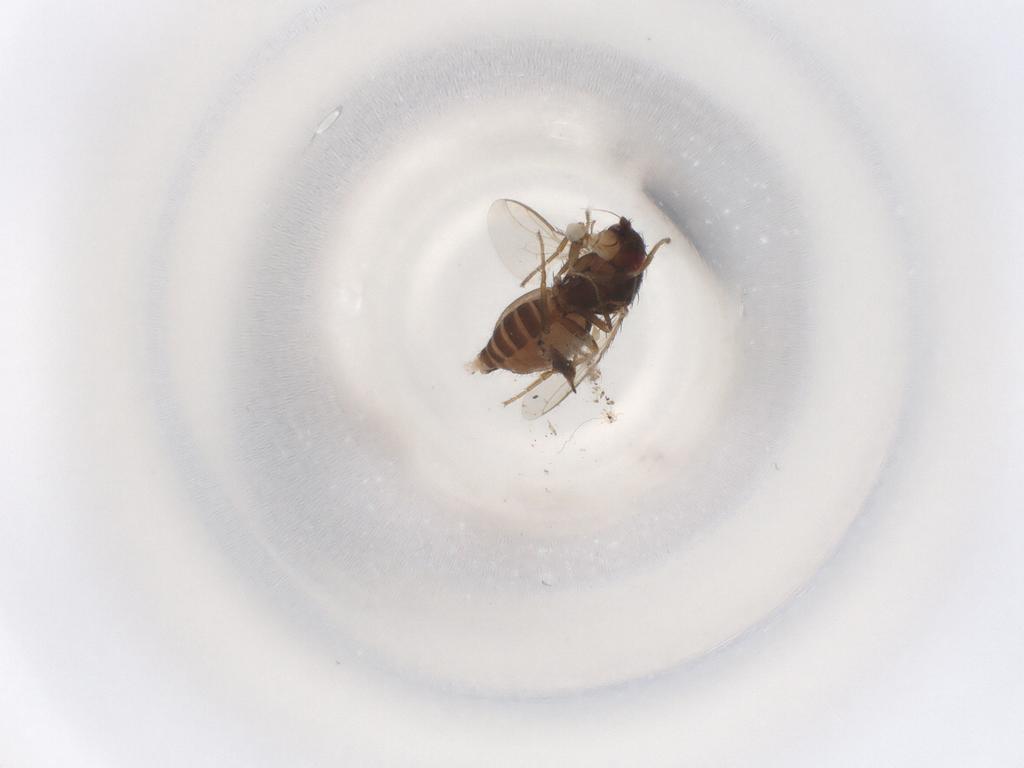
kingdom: Animalia
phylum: Arthropoda
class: Insecta
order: Diptera
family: Sphaeroceridae
